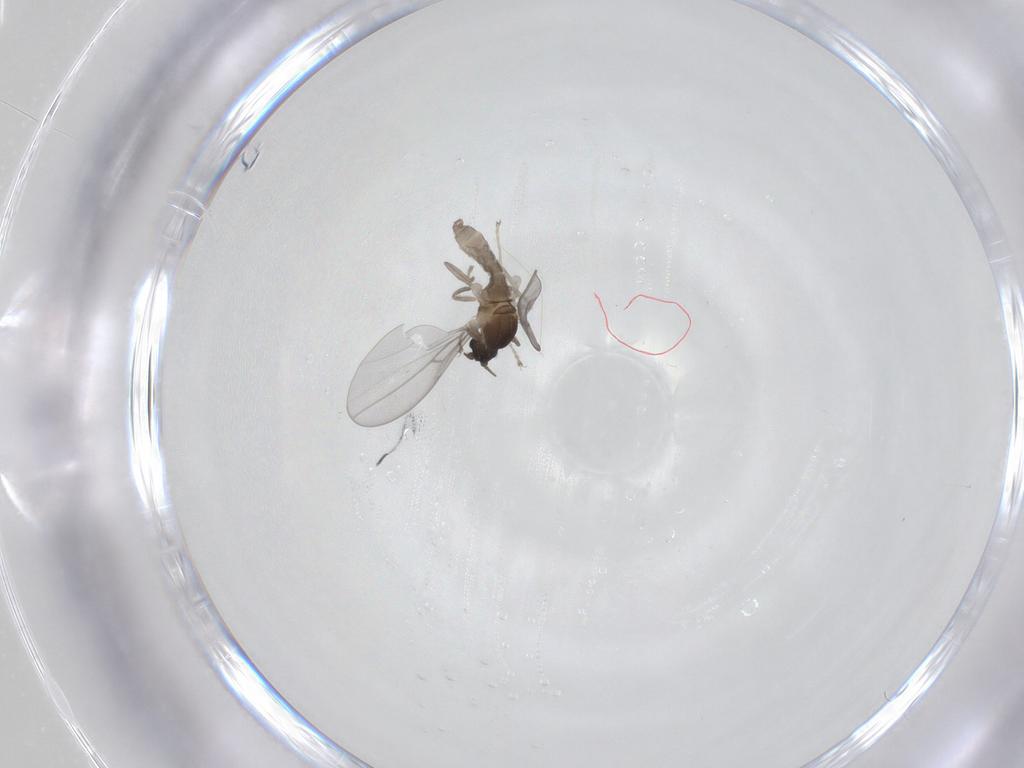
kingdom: Animalia
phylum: Arthropoda
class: Insecta
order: Diptera
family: Cecidomyiidae
